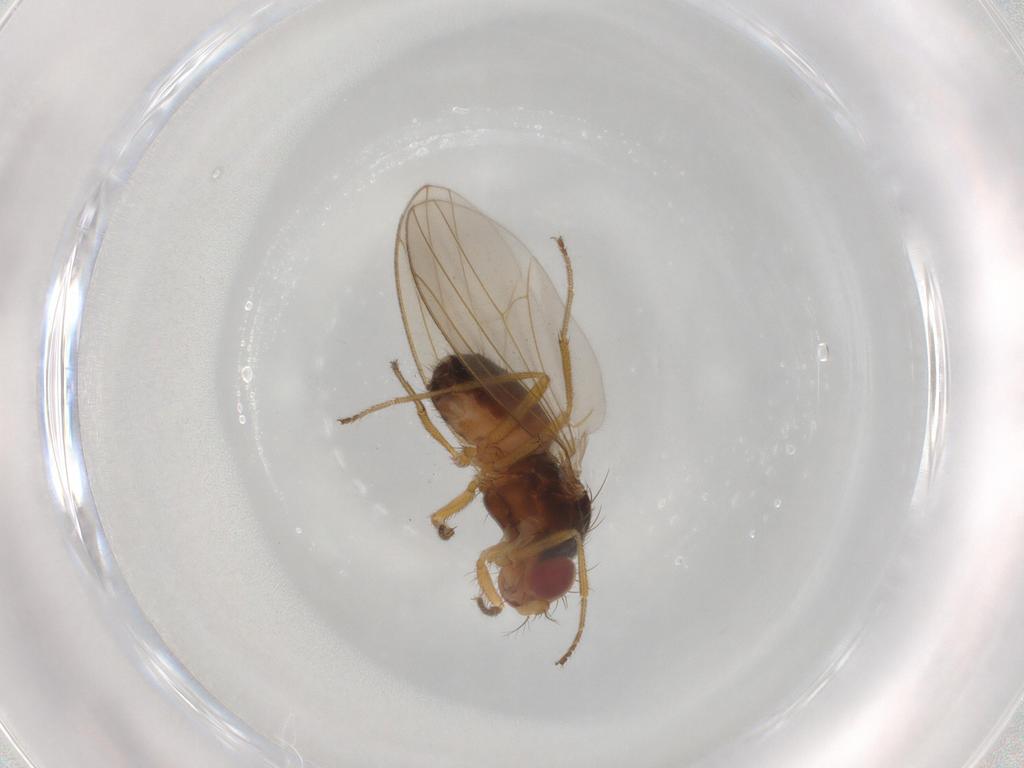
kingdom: Animalia
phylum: Arthropoda
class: Insecta
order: Diptera
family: Drosophilidae
